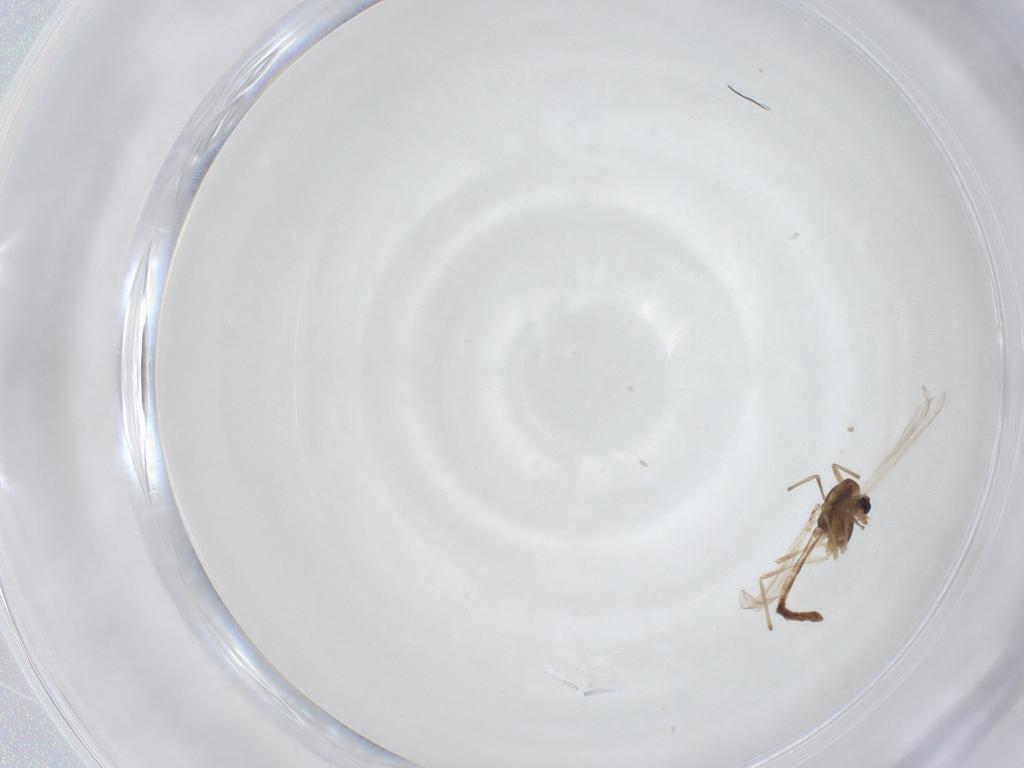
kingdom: Animalia
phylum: Arthropoda
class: Insecta
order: Diptera
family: Chironomidae
